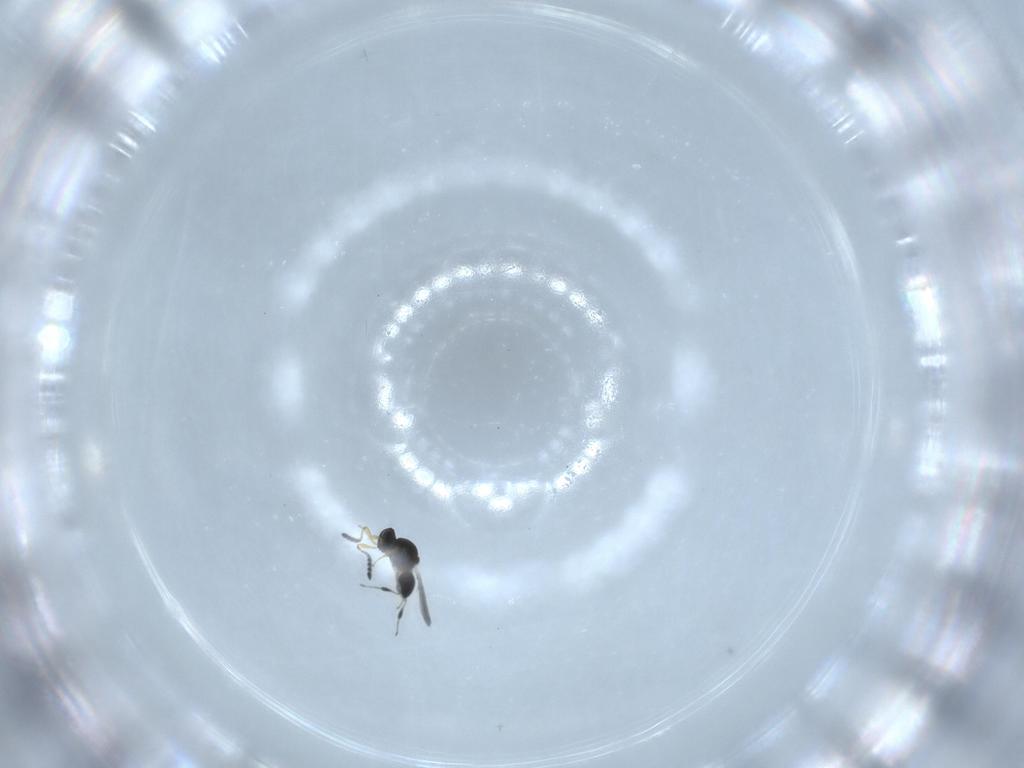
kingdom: Animalia
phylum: Arthropoda
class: Insecta
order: Hymenoptera
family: Platygastridae
